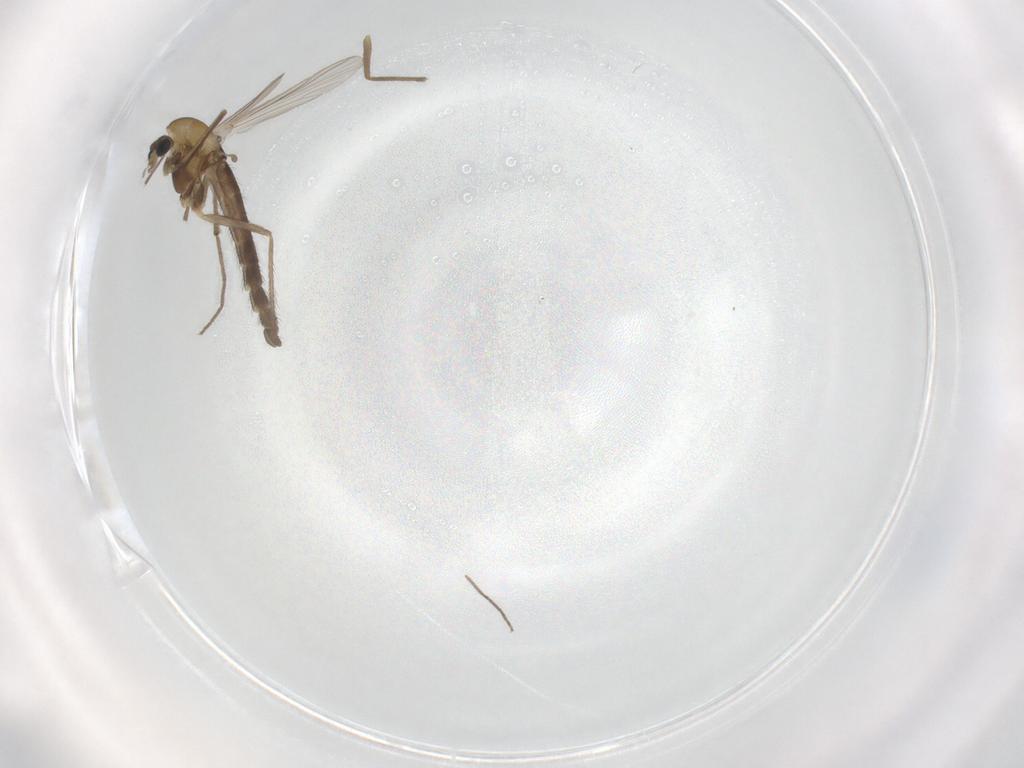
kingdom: Animalia
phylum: Arthropoda
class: Insecta
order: Diptera
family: Chironomidae
